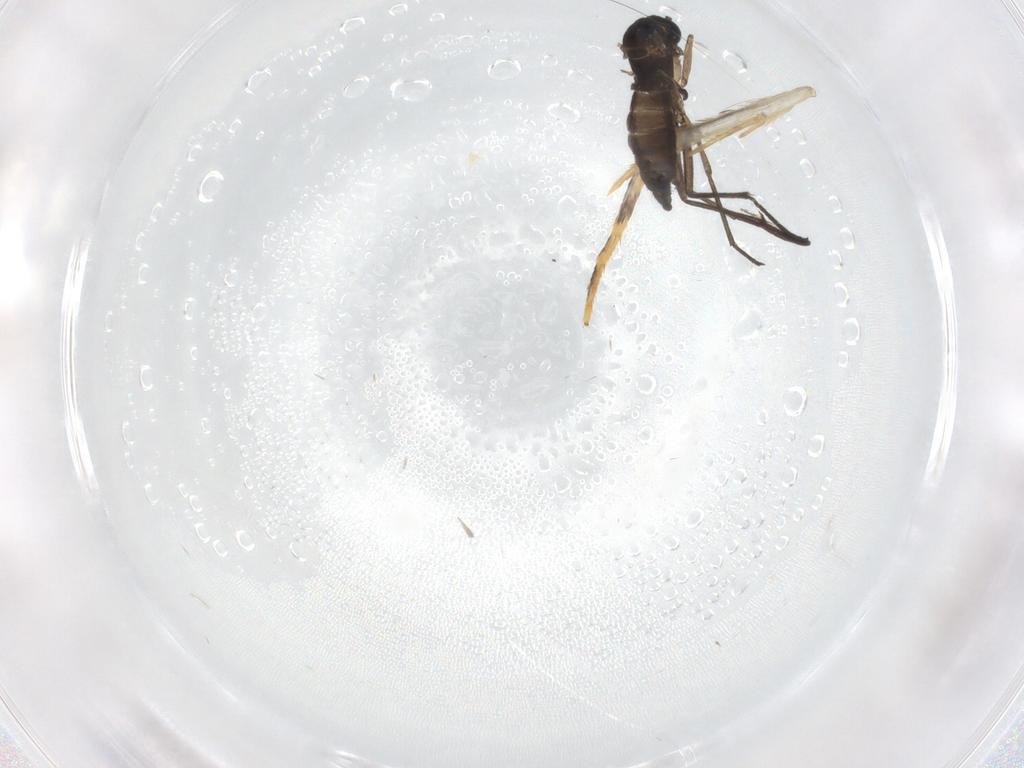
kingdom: Animalia
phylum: Arthropoda
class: Insecta
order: Diptera
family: Sciaridae
